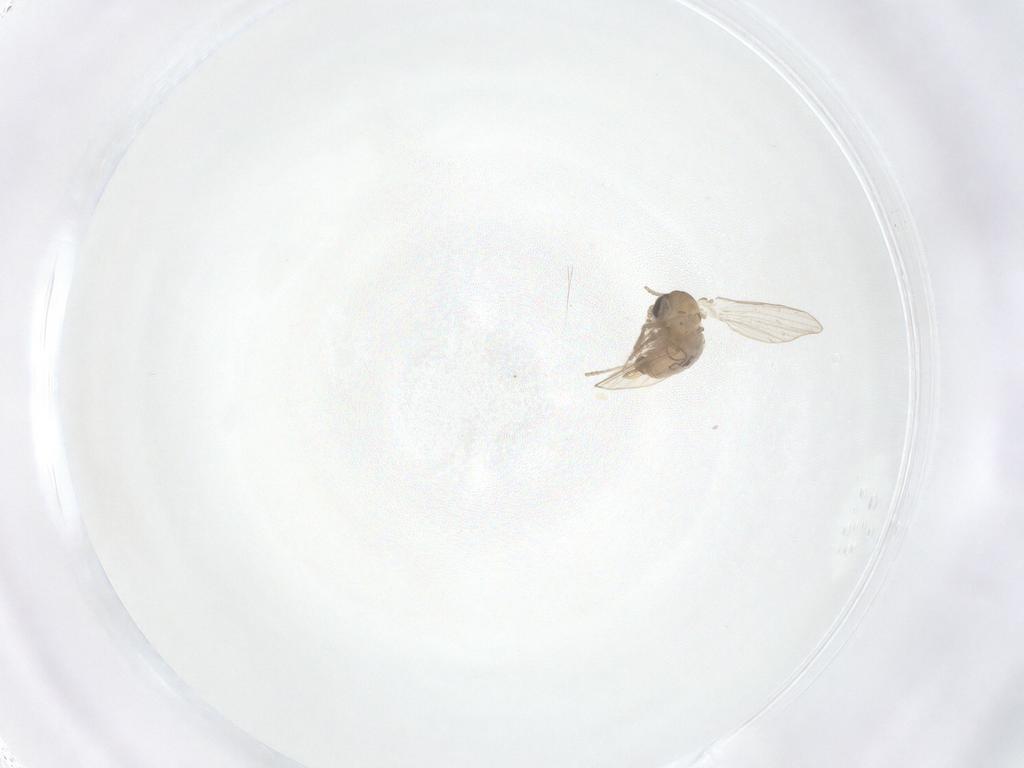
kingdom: Animalia
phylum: Arthropoda
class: Insecta
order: Diptera
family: Psychodidae
